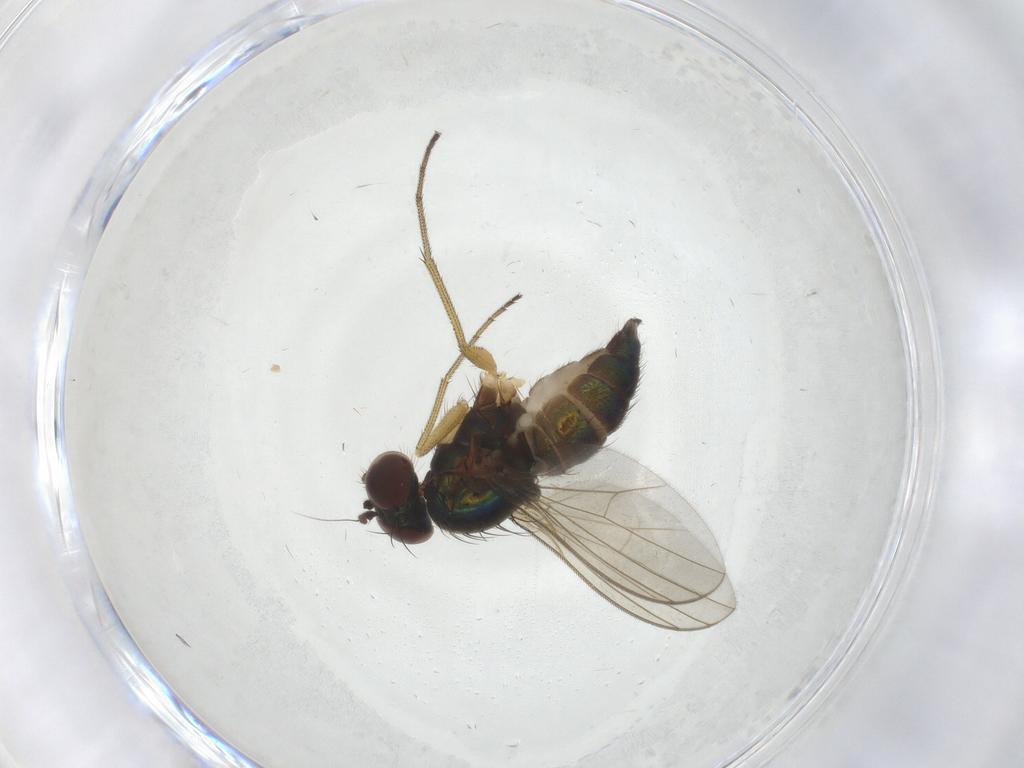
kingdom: Animalia
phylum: Arthropoda
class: Insecta
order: Diptera
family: Dolichopodidae
